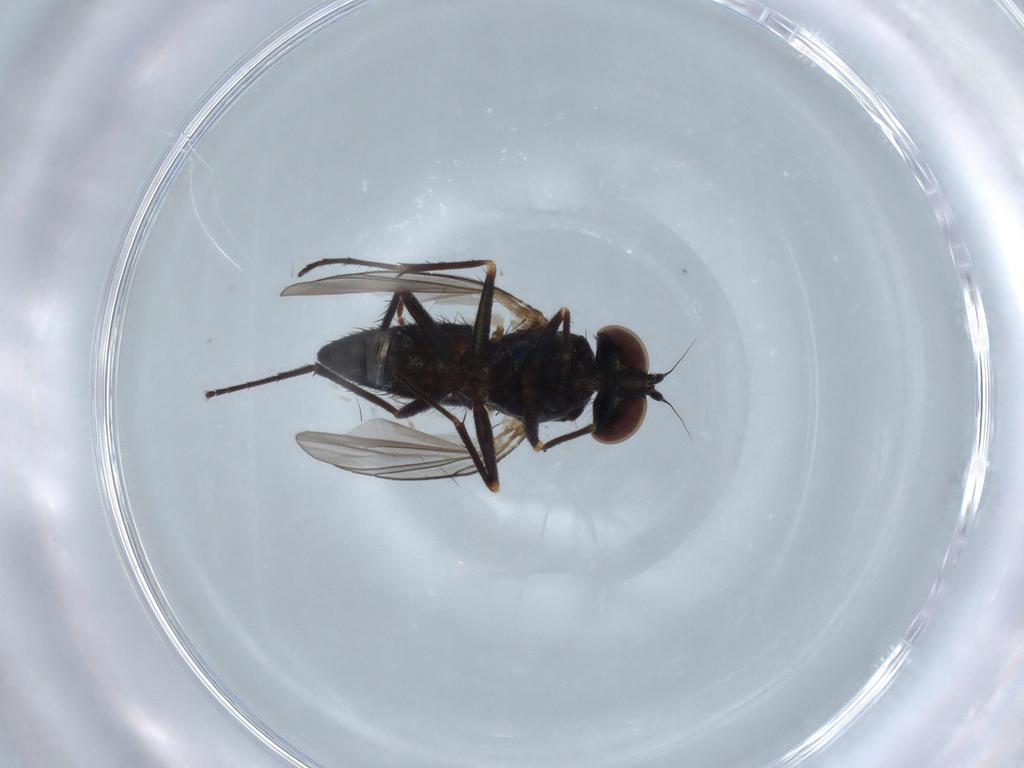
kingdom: Animalia
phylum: Arthropoda
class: Insecta
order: Diptera
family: Dolichopodidae
